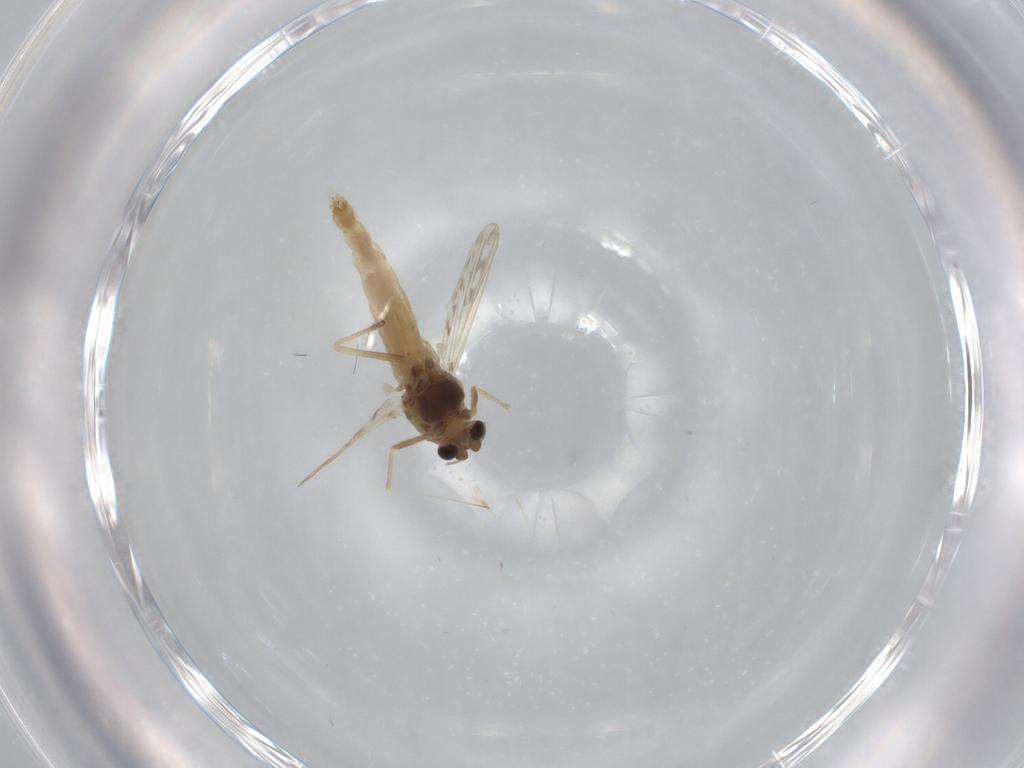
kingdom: Animalia
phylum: Arthropoda
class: Insecta
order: Diptera
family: Chironomidae
